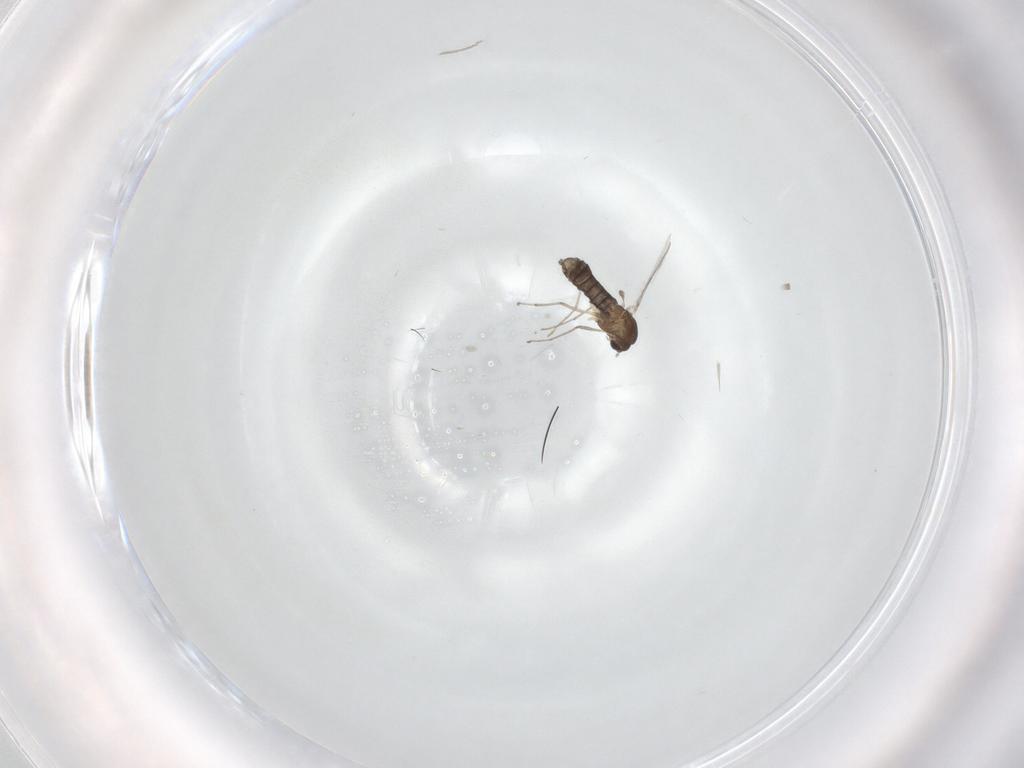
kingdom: Animalia
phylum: Arthropoda
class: Insecta
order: Diptera
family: Chironomidae
